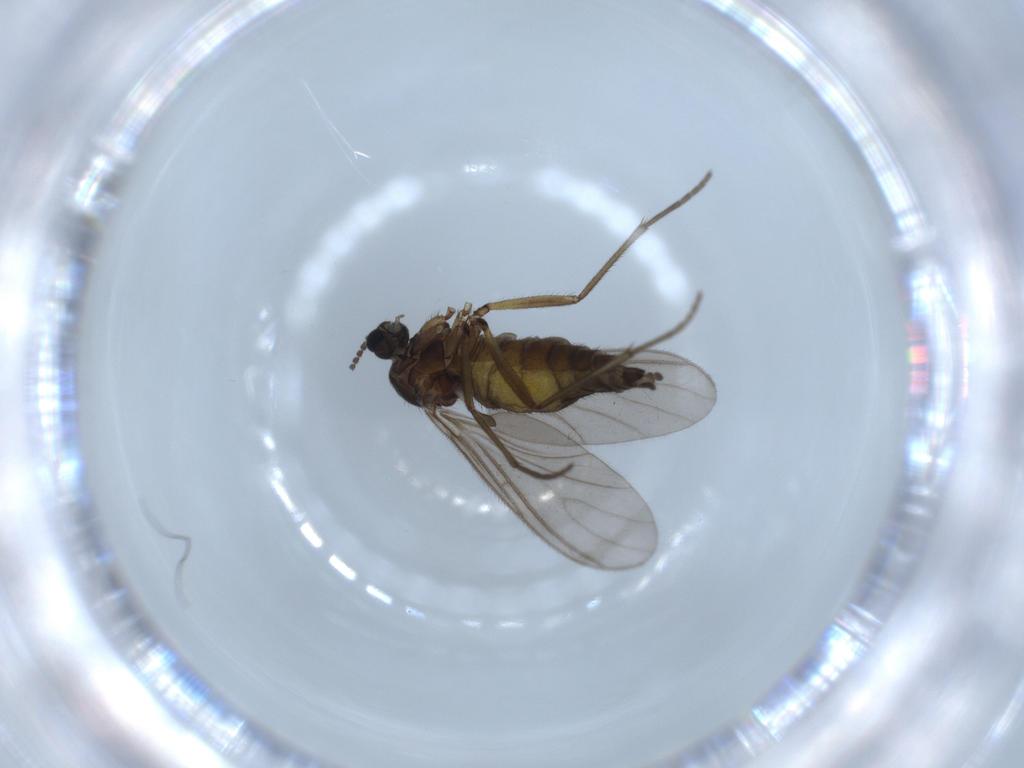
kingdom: Animalia
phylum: Arthropoda
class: Insecta
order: Diptera
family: Sciaridae
